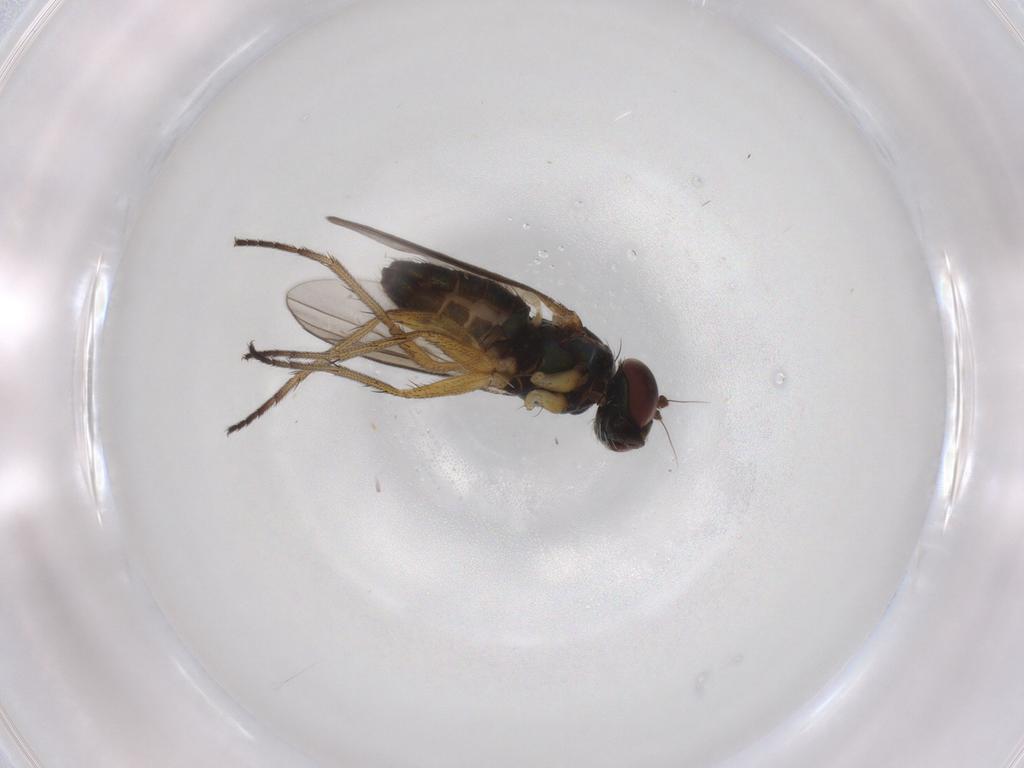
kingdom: Animalia
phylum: Arthropoda
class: Insecta
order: Diptera
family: Dolichopodidae
